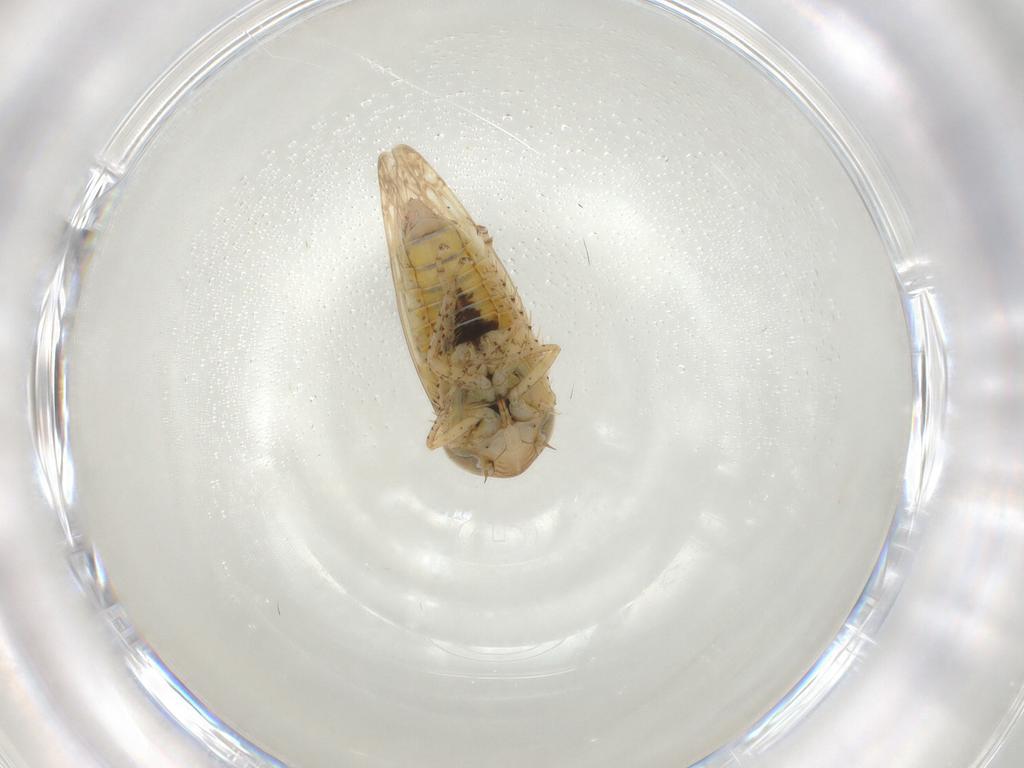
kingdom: Animalia
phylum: Arthropoda
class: Insecta
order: Hemiptera
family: Cicadellidae
